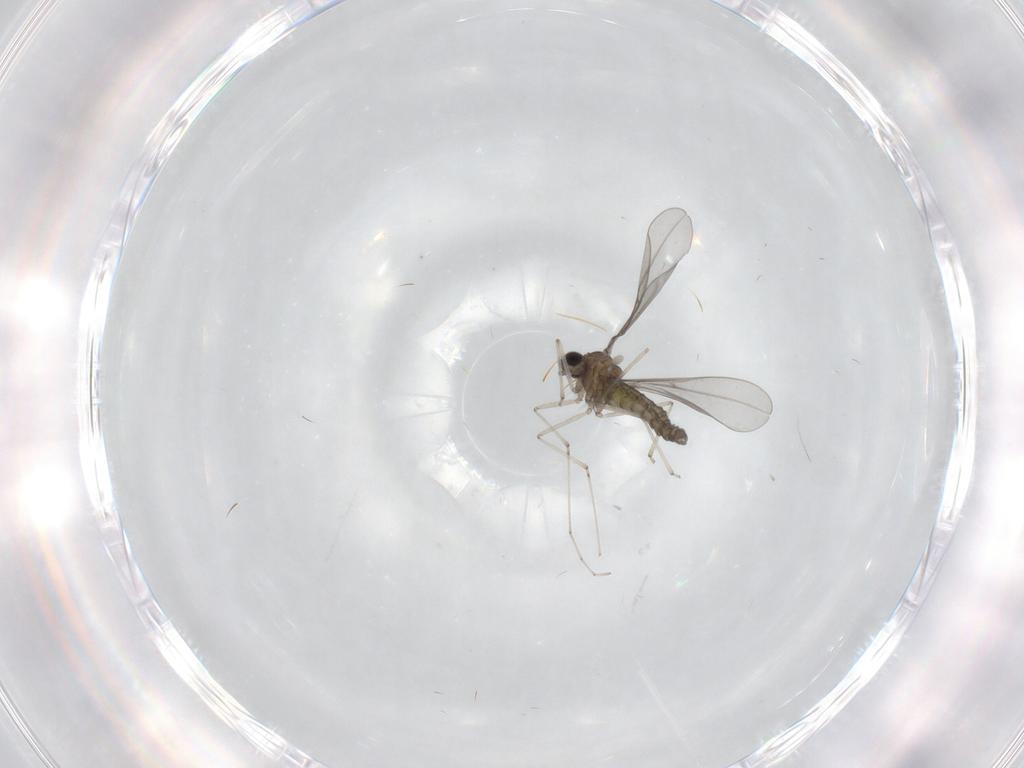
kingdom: Animalia
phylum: Arthropoda
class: Insecta
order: Diptera
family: Cecidomyiidae
